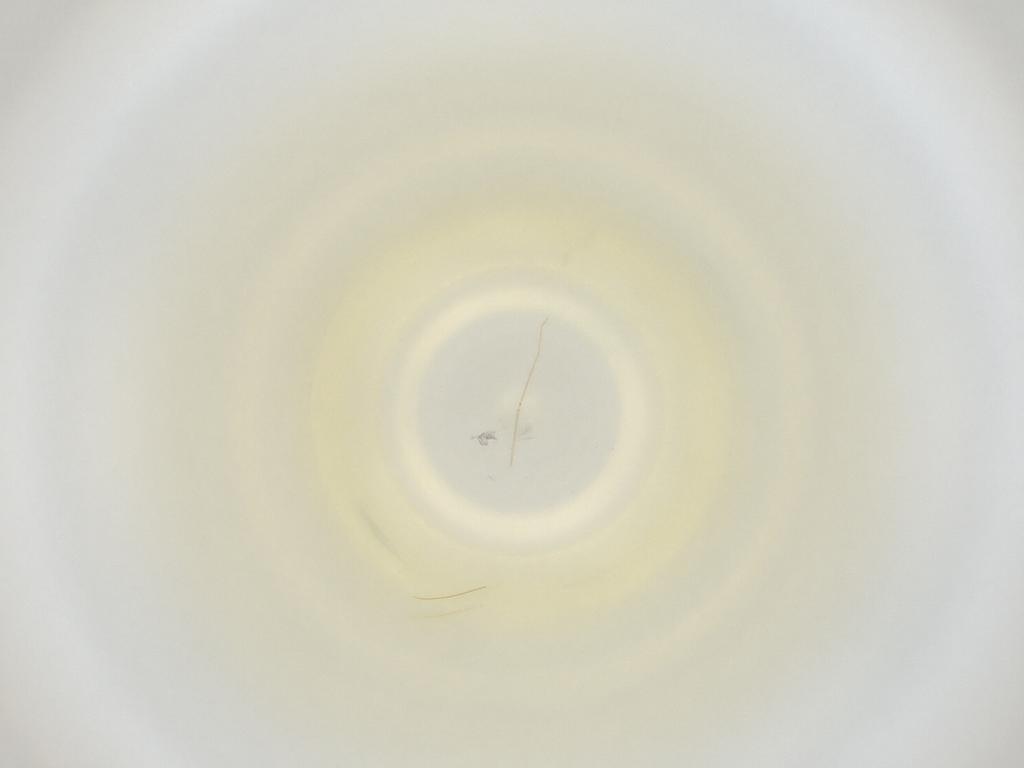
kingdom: Animalia
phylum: Arthropoda
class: Insecta
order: Diptera
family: Cecidomyiidae
